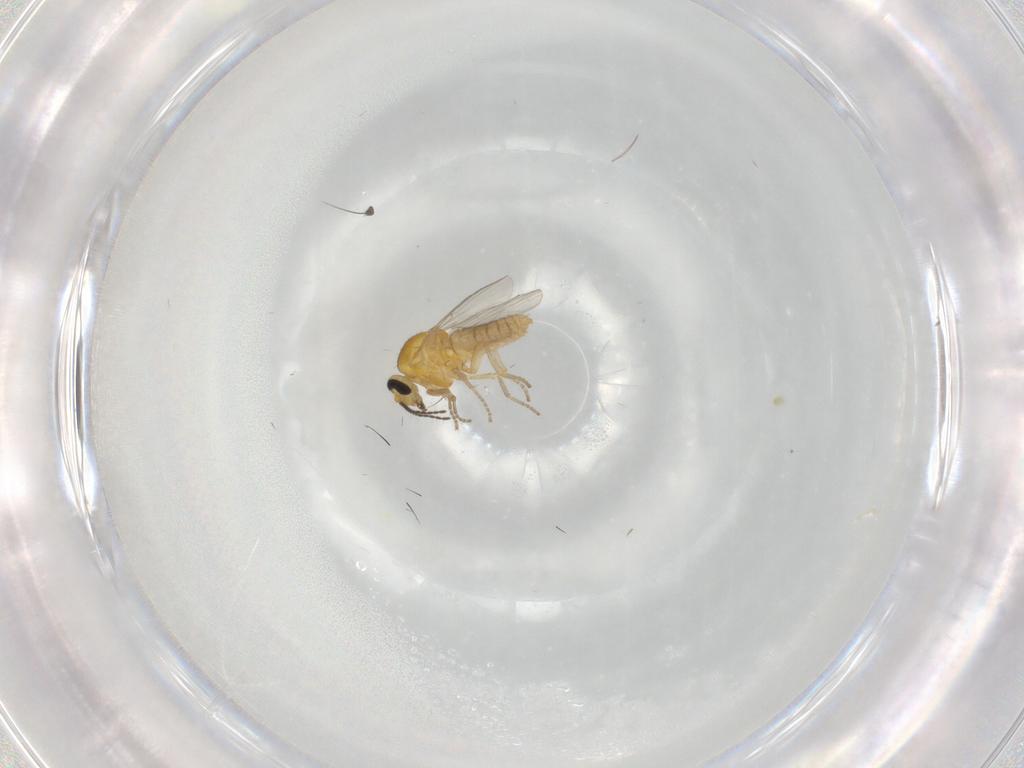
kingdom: Animalia
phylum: Arthropoda
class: Insecta
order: Diptera
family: Ceratopogonidae
